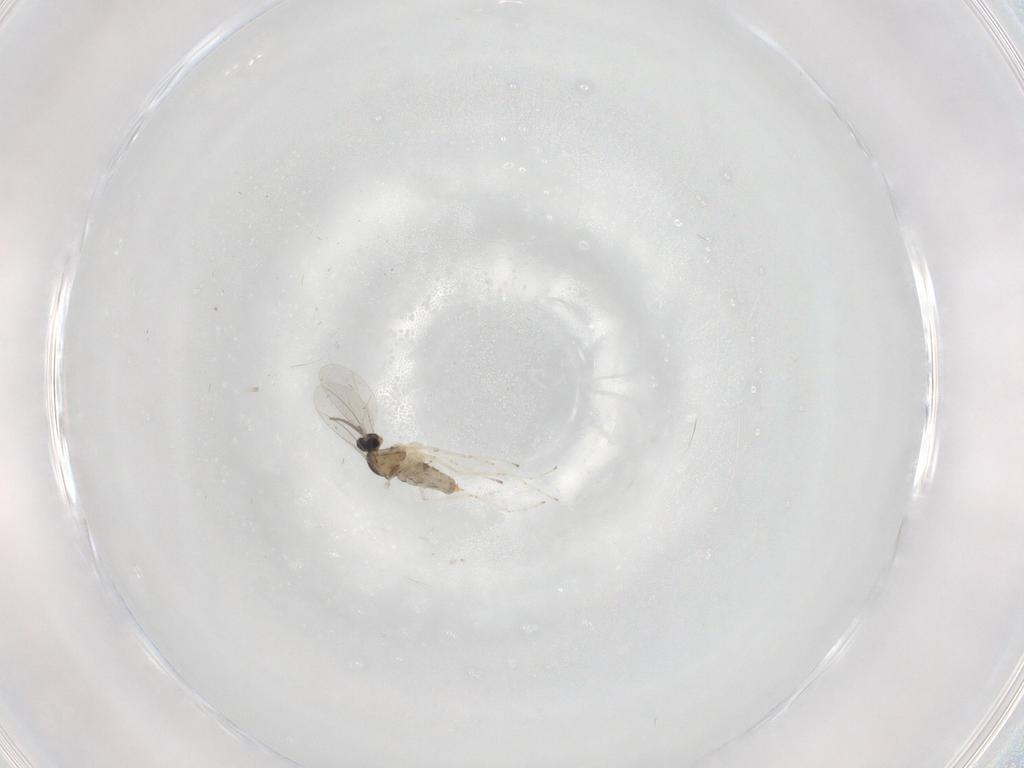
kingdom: Animalia
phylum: Arthropoda
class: Insecta
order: Diptera
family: Cecidomyiidae
